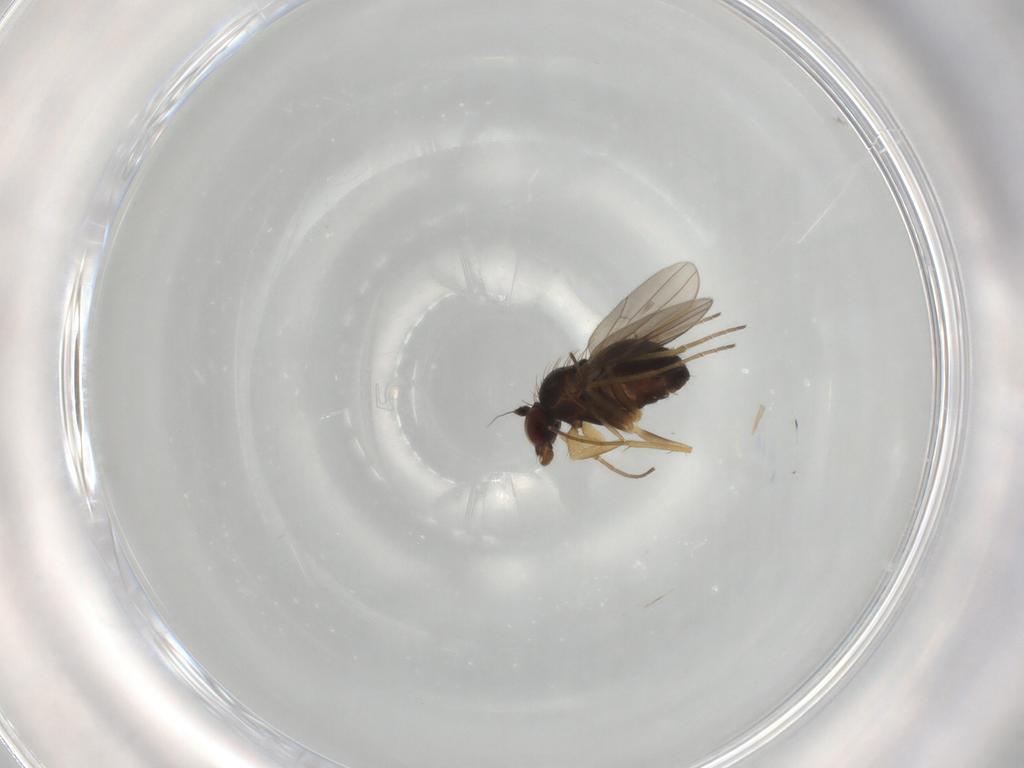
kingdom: Animalia
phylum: Arthropoda
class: Insecta
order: Diptera
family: Dolichopodidae
